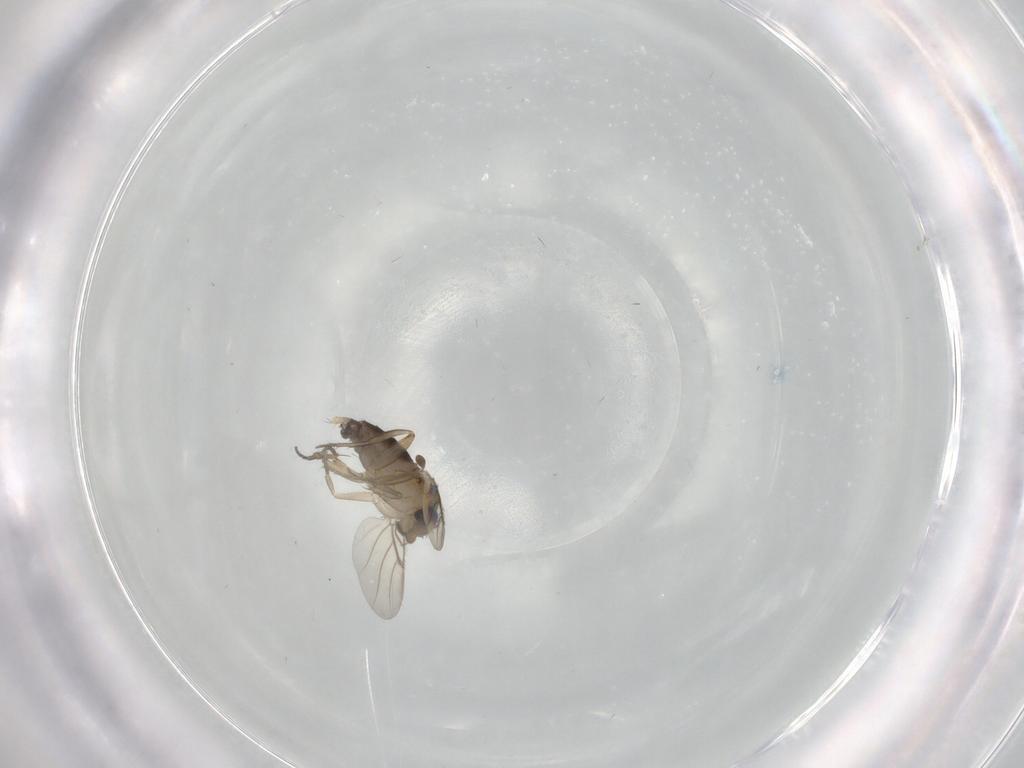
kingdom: Animalia
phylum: Arthropoda
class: Insecta
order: Diptera
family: Phoridae
